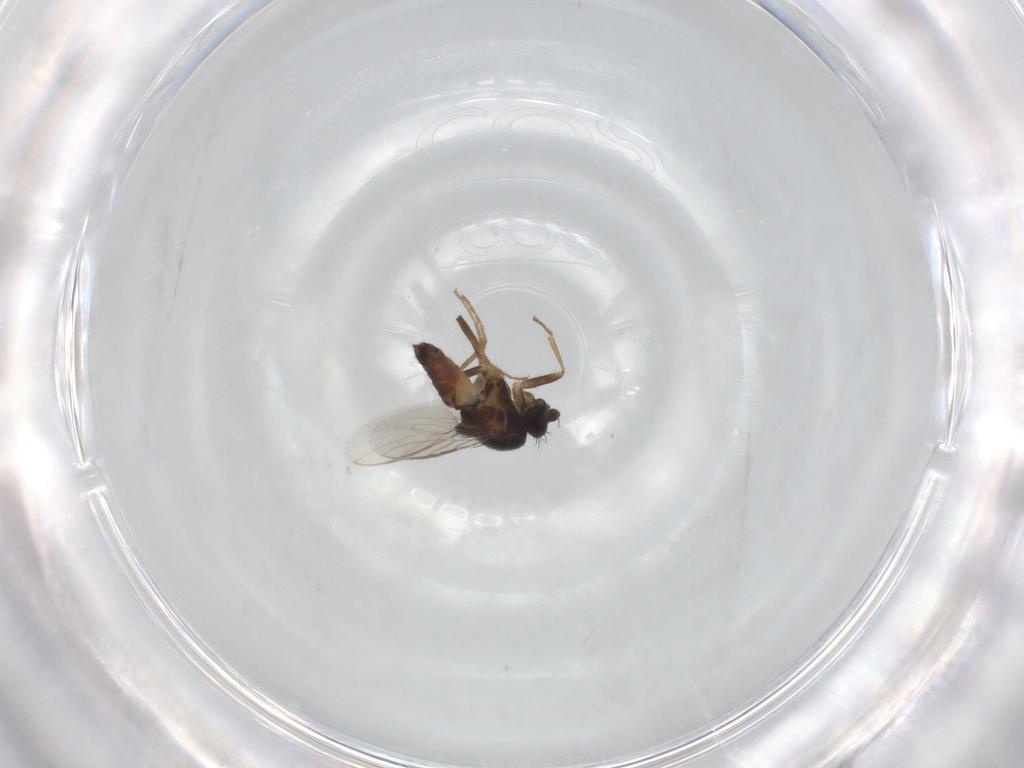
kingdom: Animalia
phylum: Arthropoda
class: Insecta
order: Diptera
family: Sphaeroceridae
